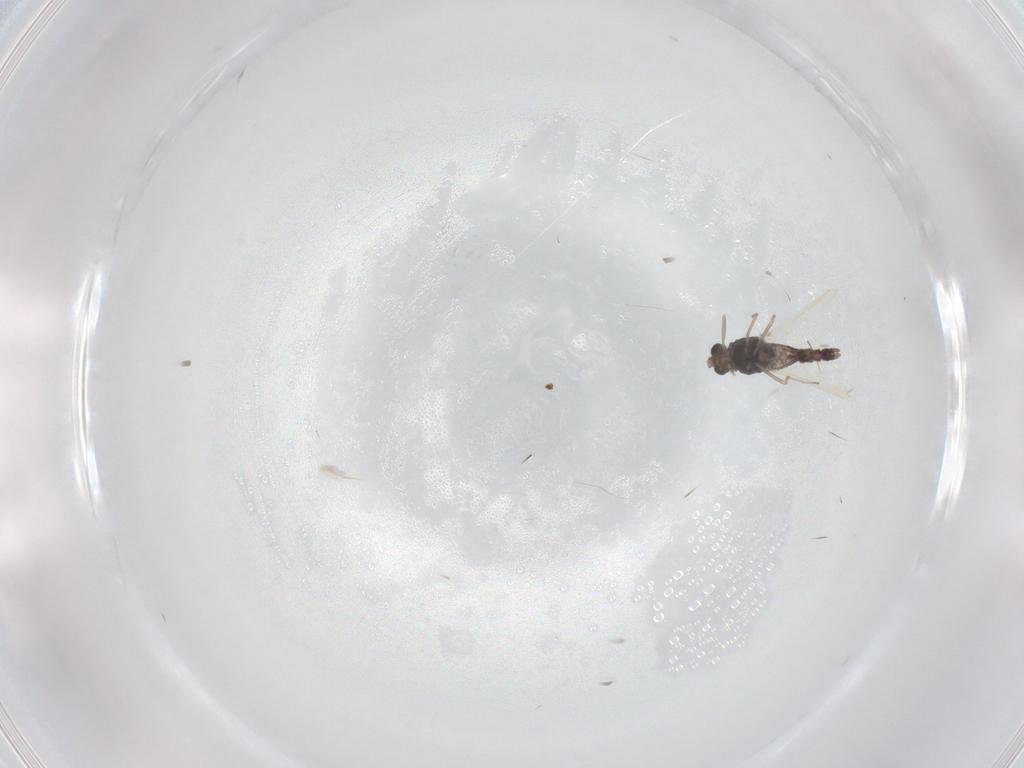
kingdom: Animalia
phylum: Arthropoda
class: Insecta
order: Diptera
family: Chironomidae
